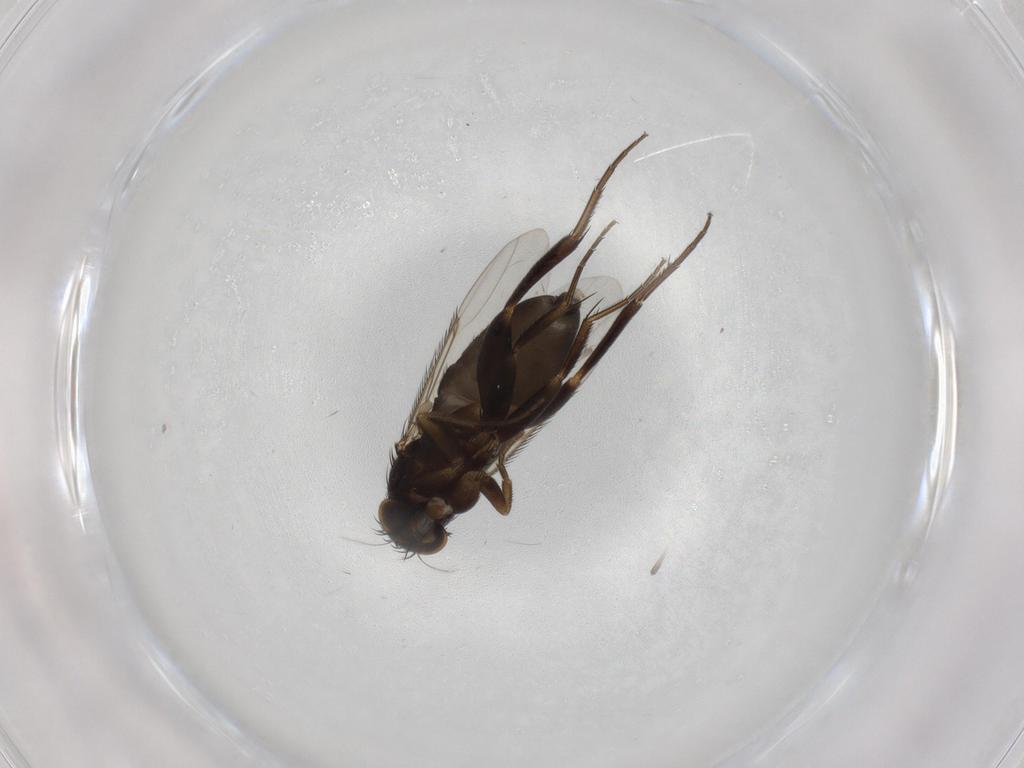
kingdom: Animalia
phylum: Arthropoda
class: Insecta
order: Diptera
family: Phoridae
